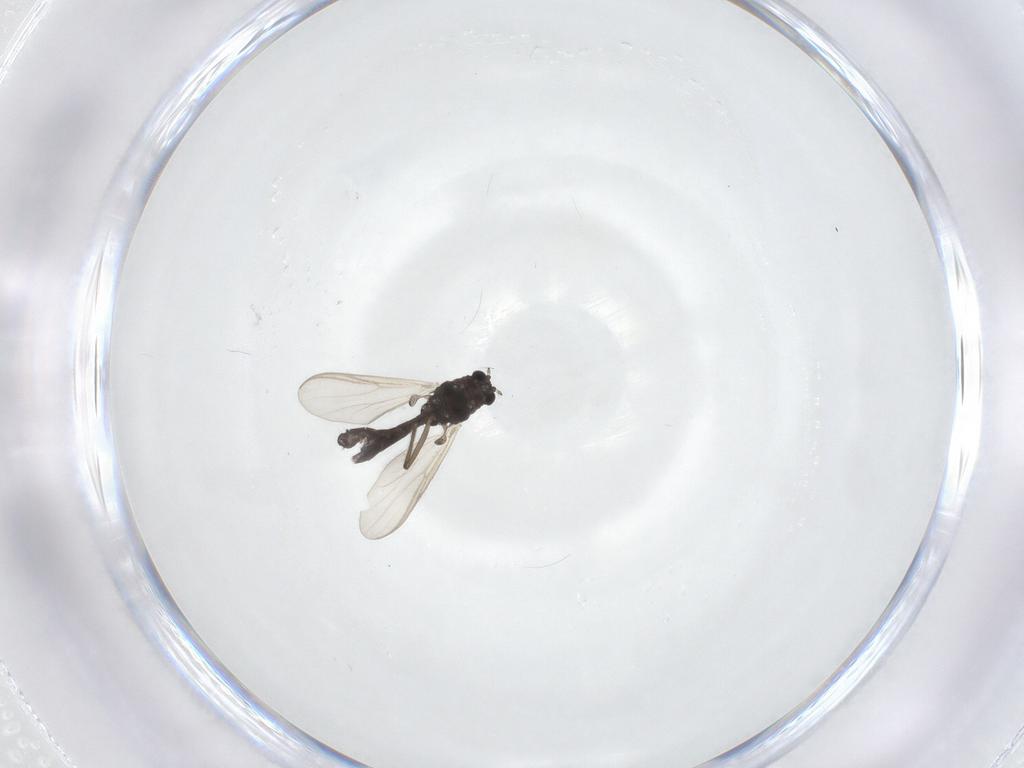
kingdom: Animalia
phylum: Arthropoda
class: Insecta
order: Diptera
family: Chironomidae
